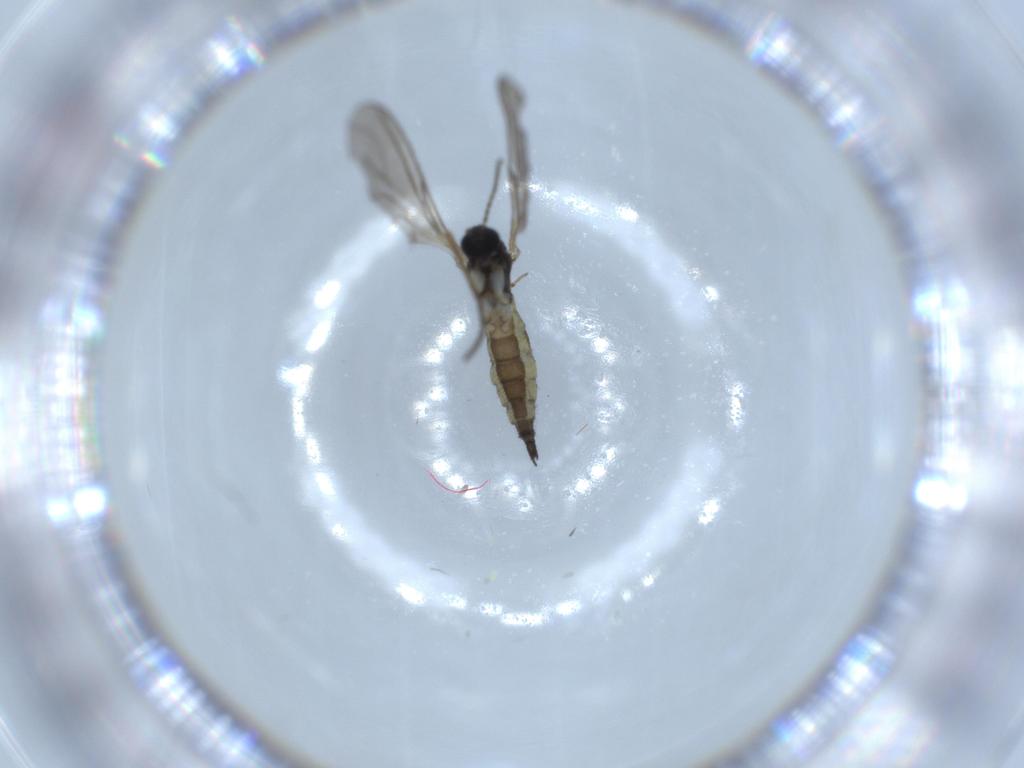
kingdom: Animalia
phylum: Arthropoda
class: Insecta
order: Diptera
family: Sciaridae
